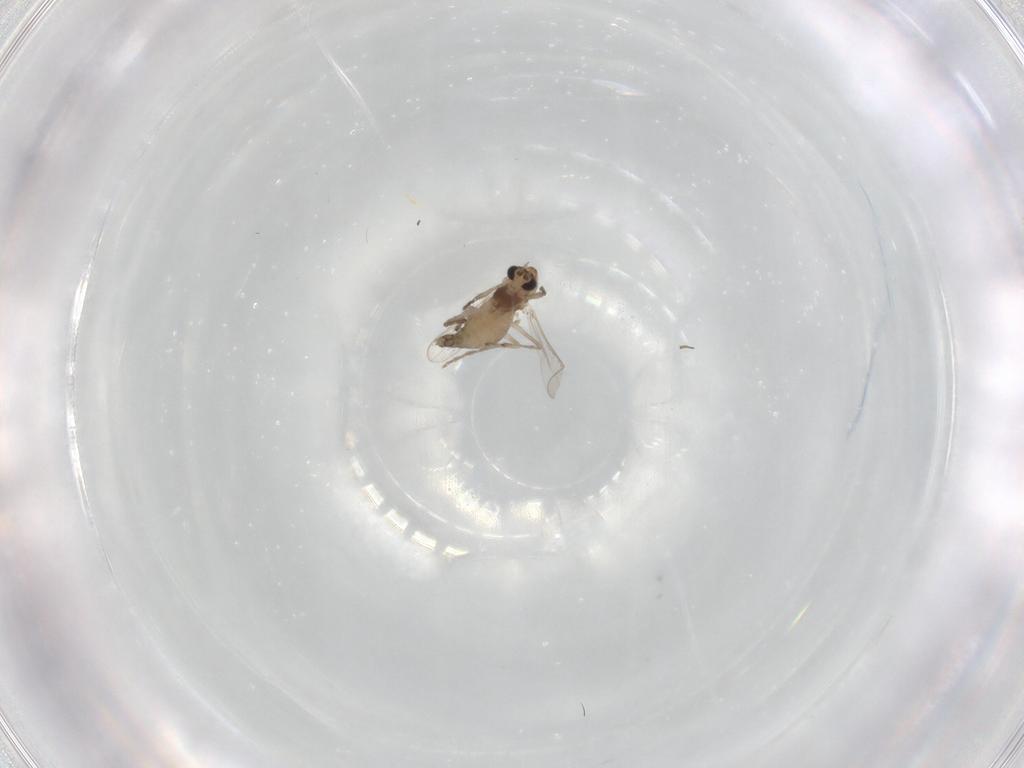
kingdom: Animalia
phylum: Arthropoda
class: Insecta
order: Diptera
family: Chironomidae
